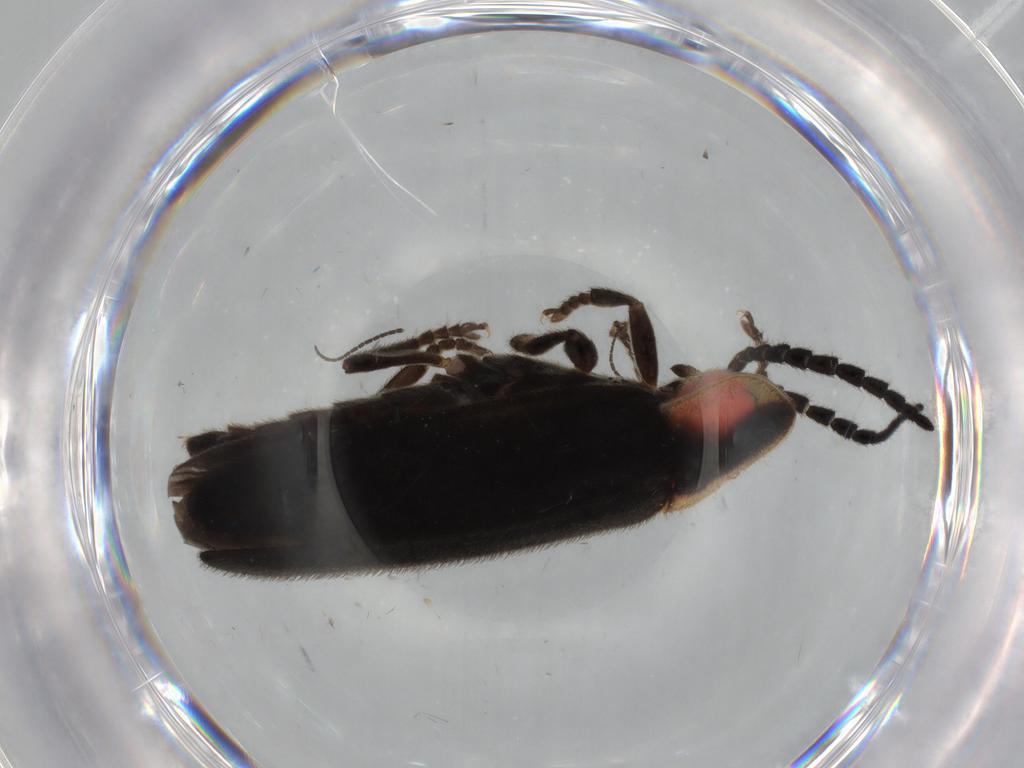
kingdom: Animalia
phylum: Arthropoda
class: Insecta
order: Coleoptera
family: Lampyridae
